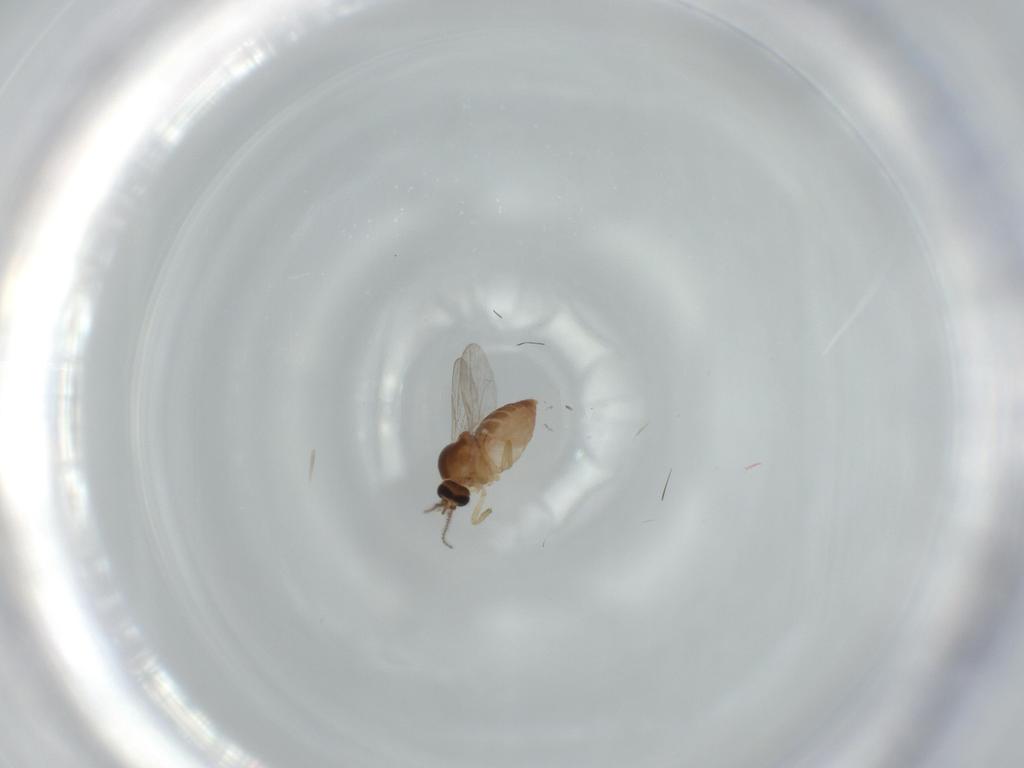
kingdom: Animalia
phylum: Arthropoda
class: Insecta
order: Diptera
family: Ceratopogonidae
